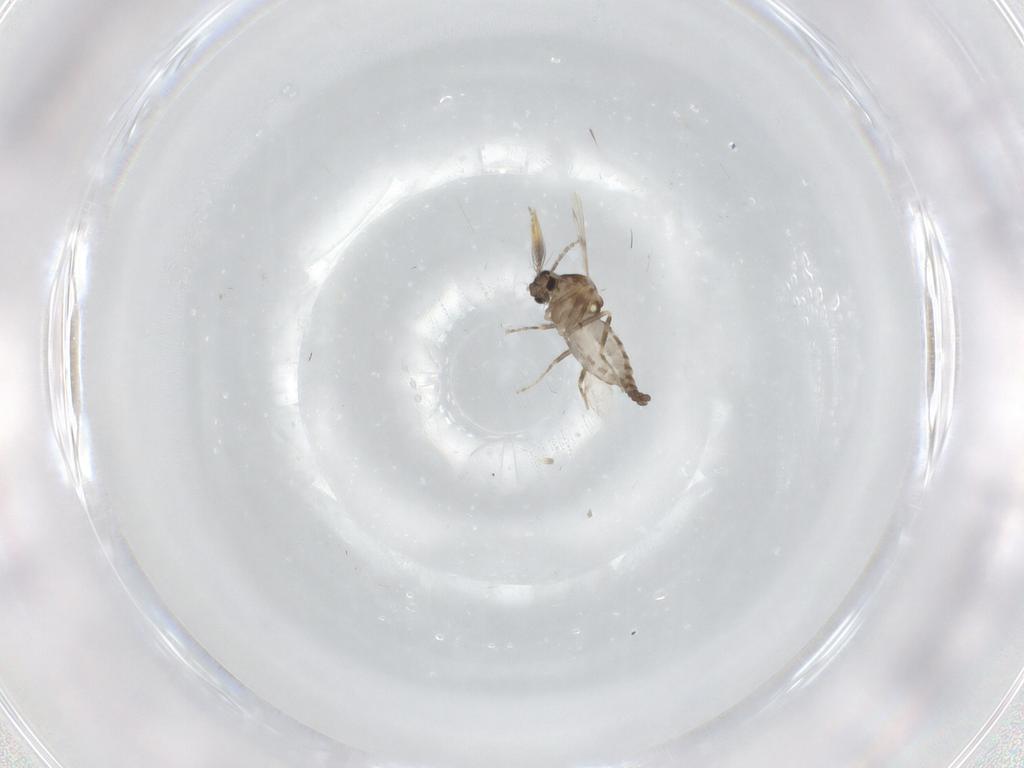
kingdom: Animalia
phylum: Arthropoda
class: Insecta
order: Diptera
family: Ceratopogonidae
